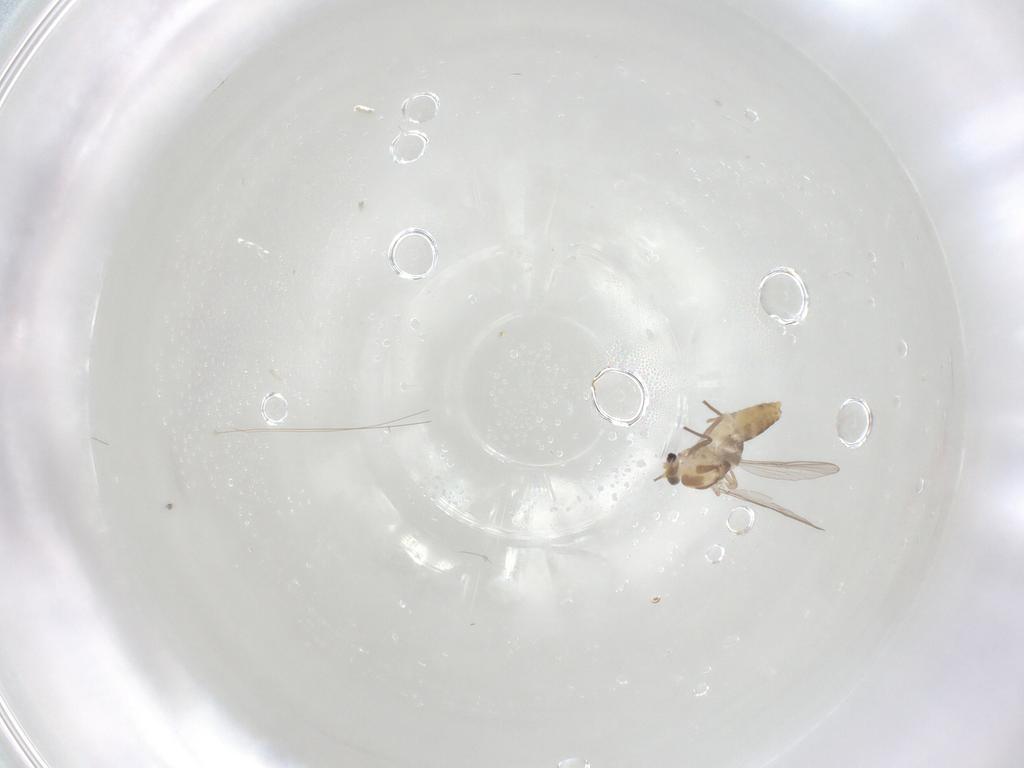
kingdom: Animalia
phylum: Arthropoda
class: Insecta
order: Diptera
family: Chironomidae
